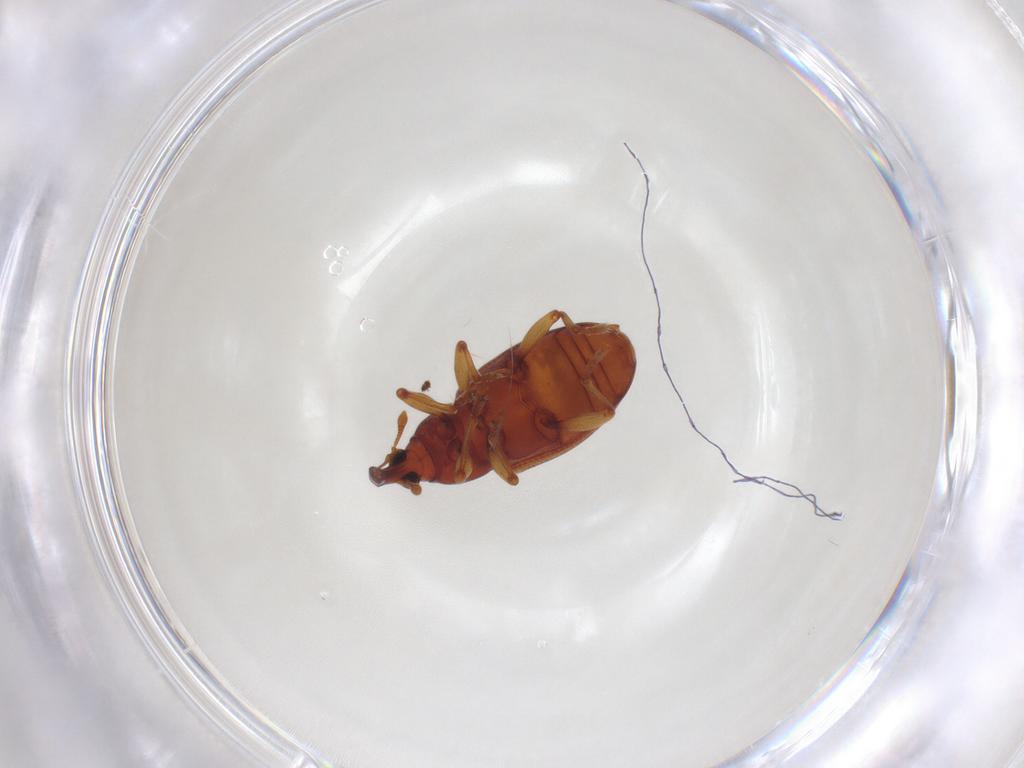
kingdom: Animalia
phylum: Arthropoda
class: Insecta
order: Coleoptera
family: Curculionidae
